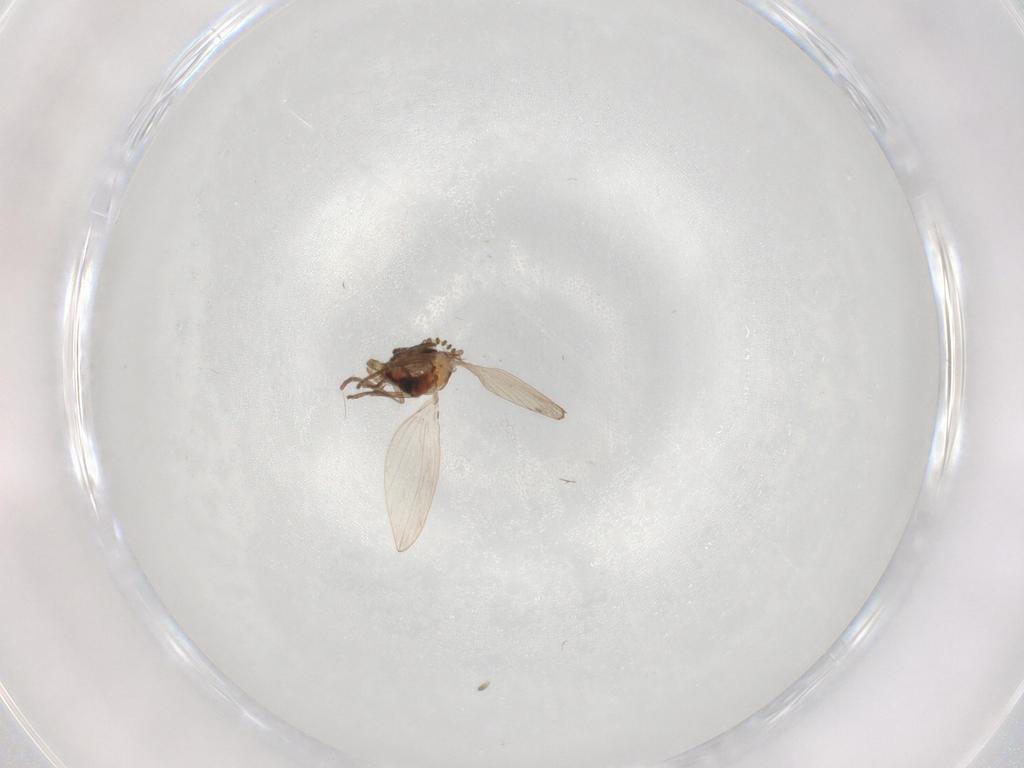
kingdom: Animalia
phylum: Arthropoda
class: Insecta
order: Diptera
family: Psychodidae
